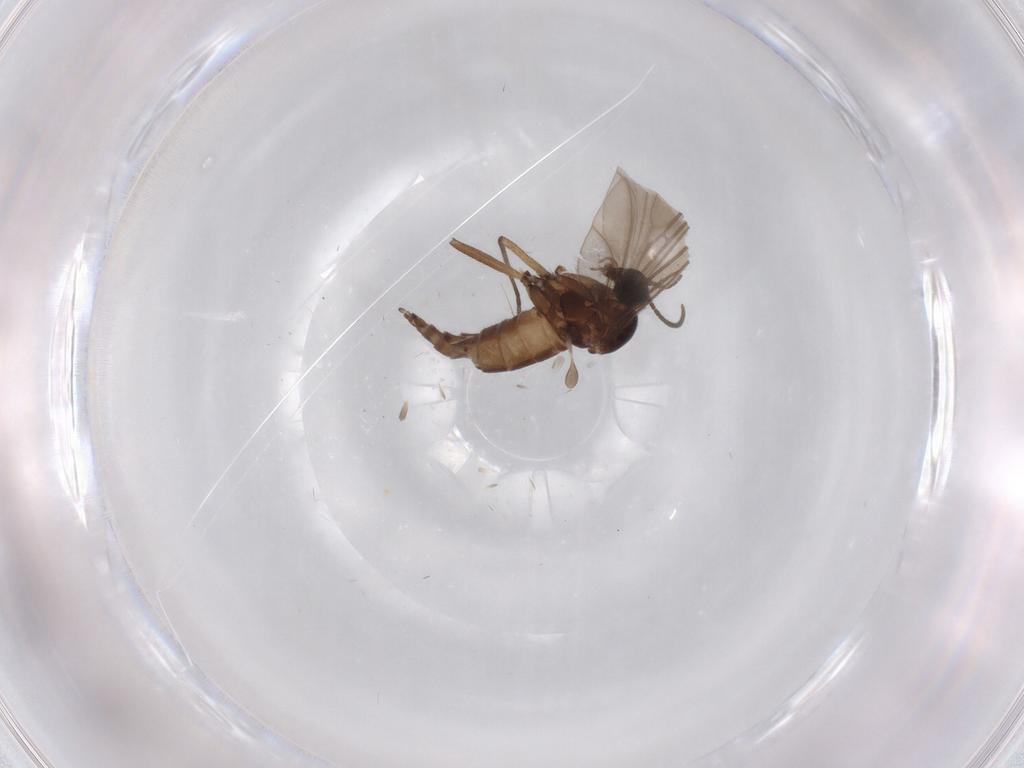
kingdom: Animalia
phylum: Arthropoda
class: Insecta
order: Diptera
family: Sciaridae
